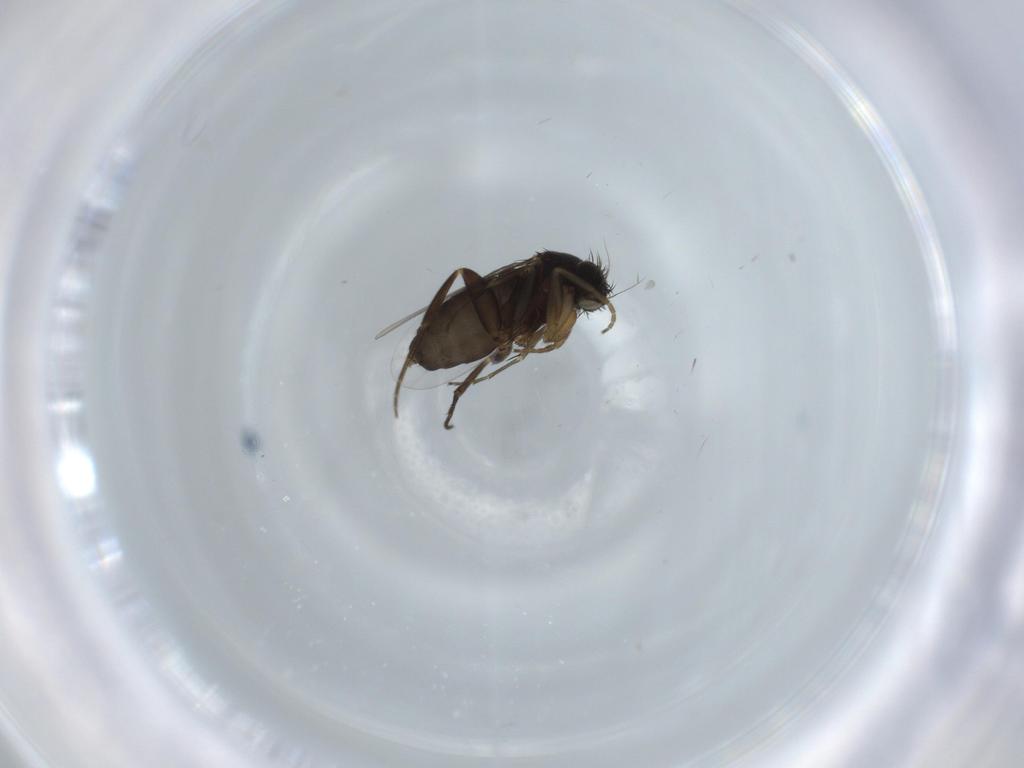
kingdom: Animalia
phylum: Arthropoda
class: Insecta
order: Diptera
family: Phoridae
